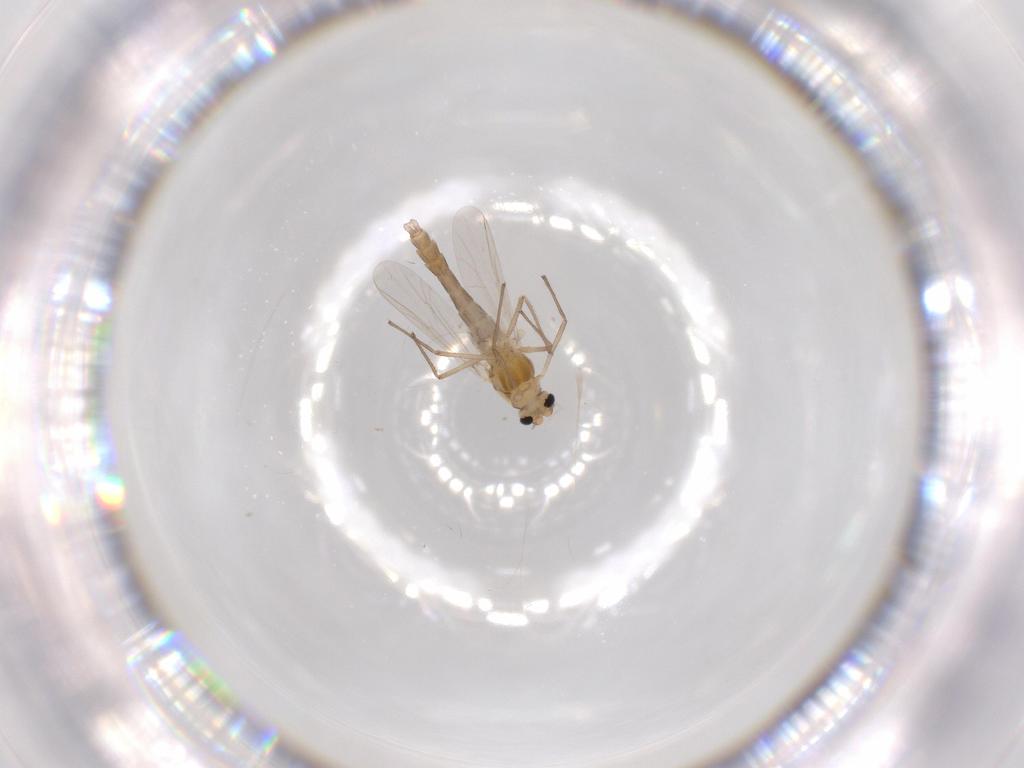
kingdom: Animalia
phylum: Arthropoda
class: Insecta
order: Diptera
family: Chironomidae
